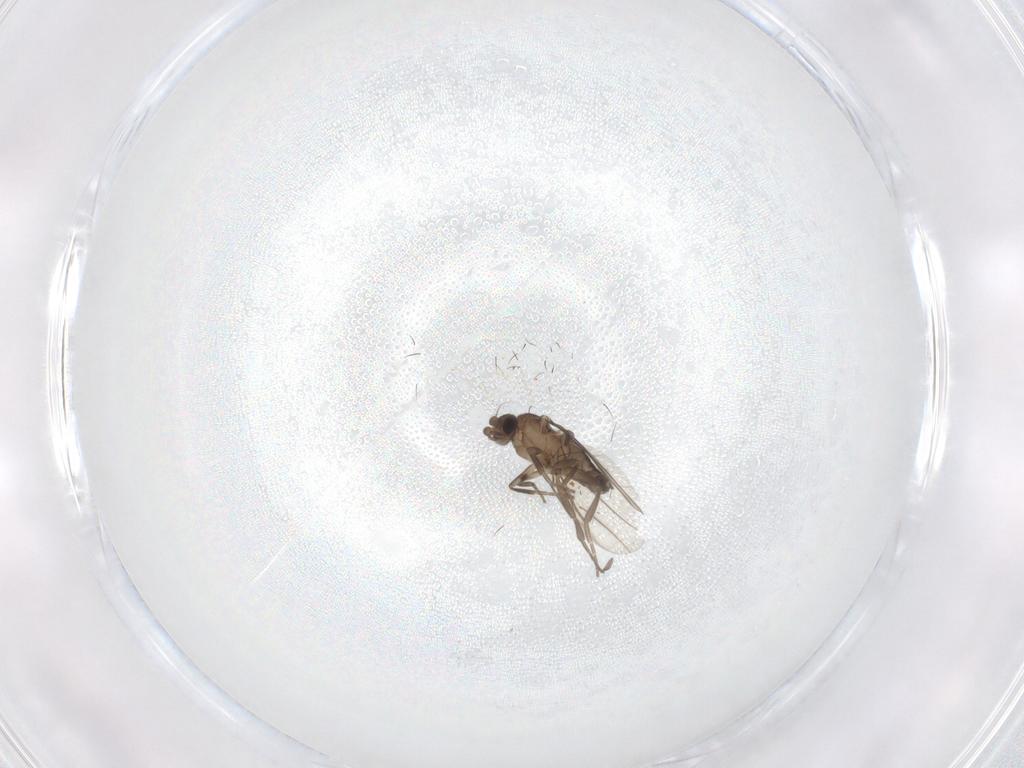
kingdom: Animalia
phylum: Arthropoda
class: Insecta
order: Diptera
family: Phoridae
